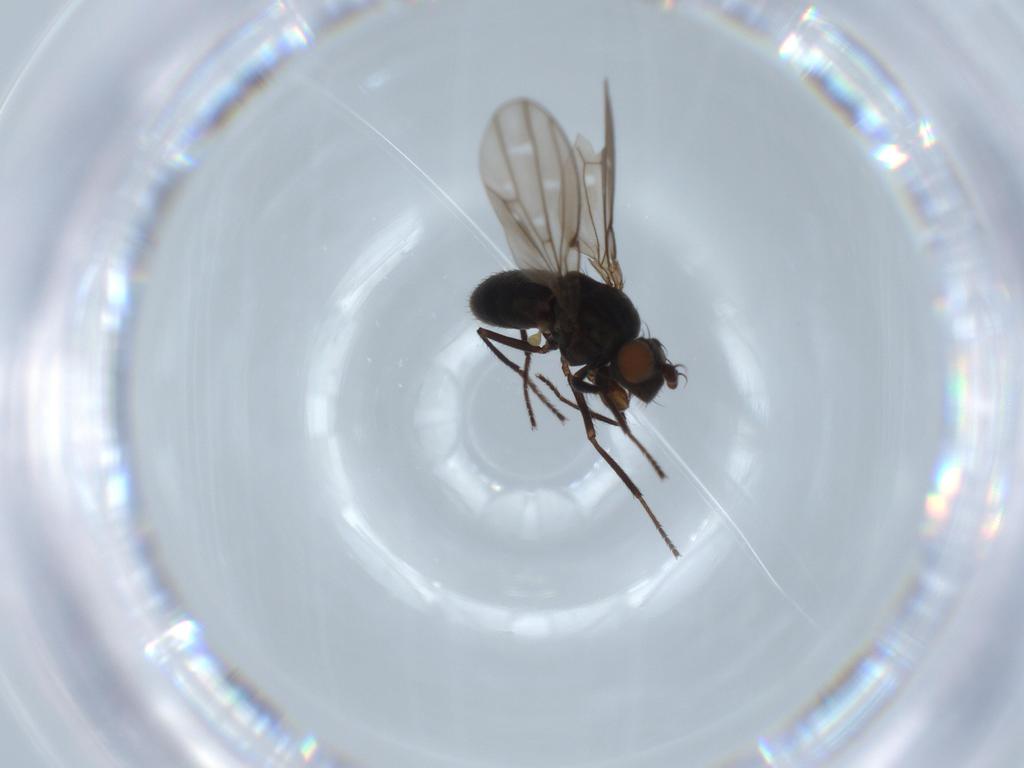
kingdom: Animalia
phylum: Arthropoda
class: Insecta
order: Diptera
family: Ephydridae
